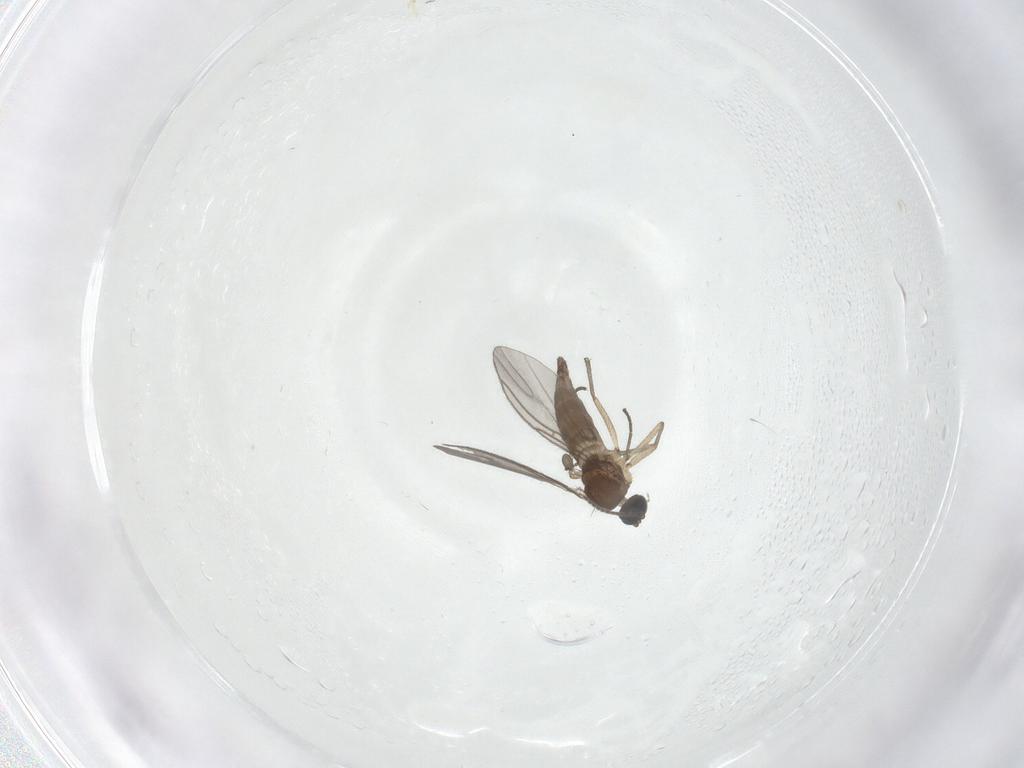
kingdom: Animalia
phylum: Arthropoda
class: Insecta
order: Diptera
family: Sciaridae
